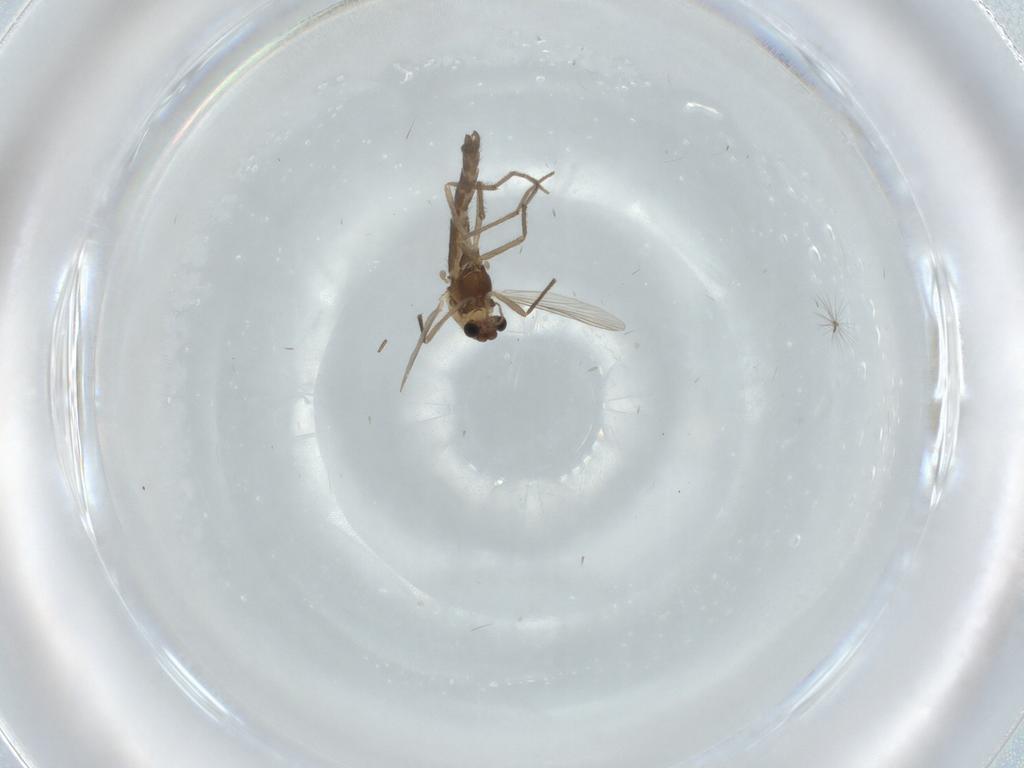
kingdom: Animalia
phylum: Arthropoda
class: Insecta
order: Diptera
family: Chironomidae
